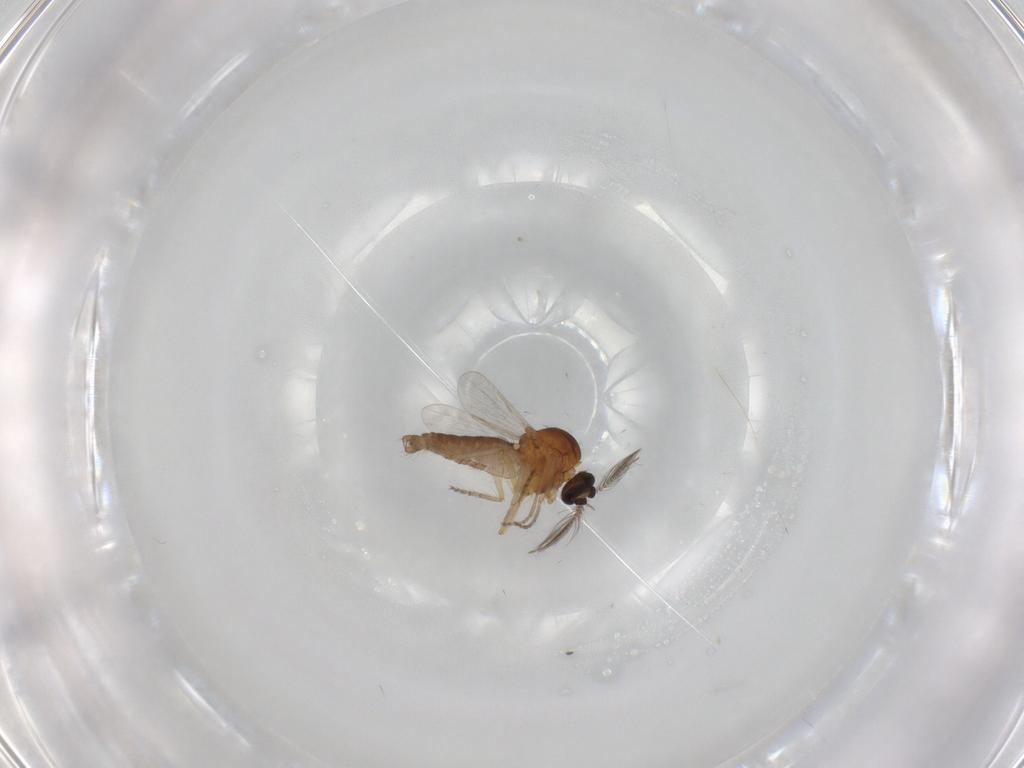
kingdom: Animalia
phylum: Arthropoda
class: Insecta
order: Diptera
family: Ceratopogonidae
